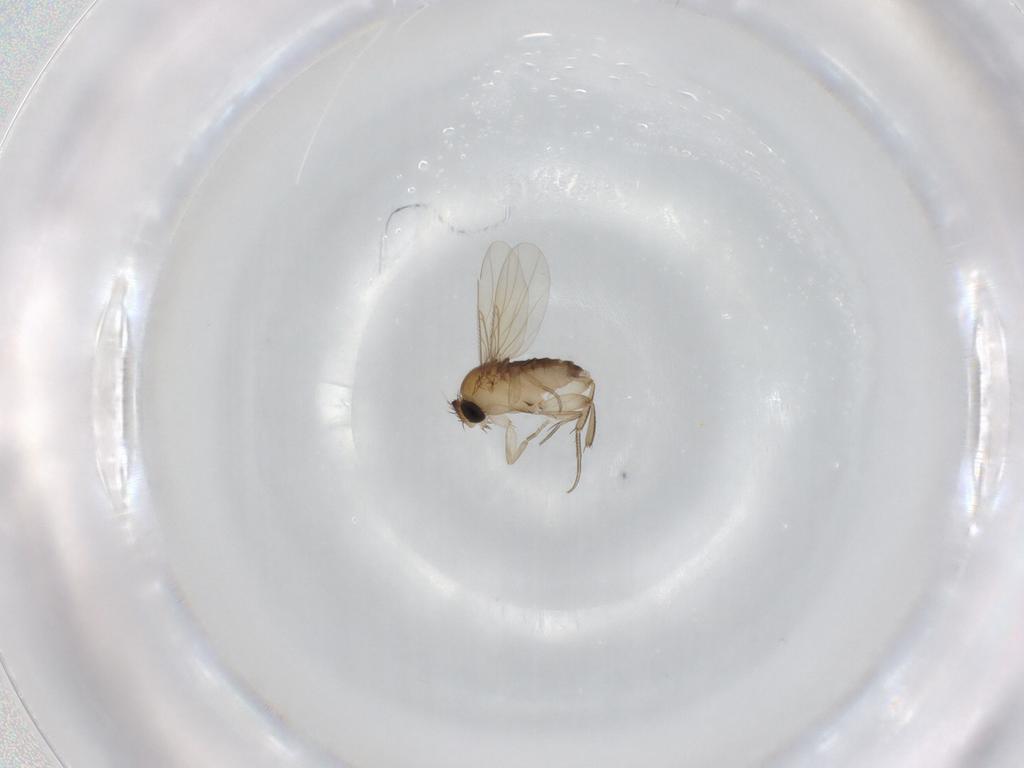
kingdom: Animalia
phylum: Arthropoda
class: Insecta
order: Diptera
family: Phoridae
